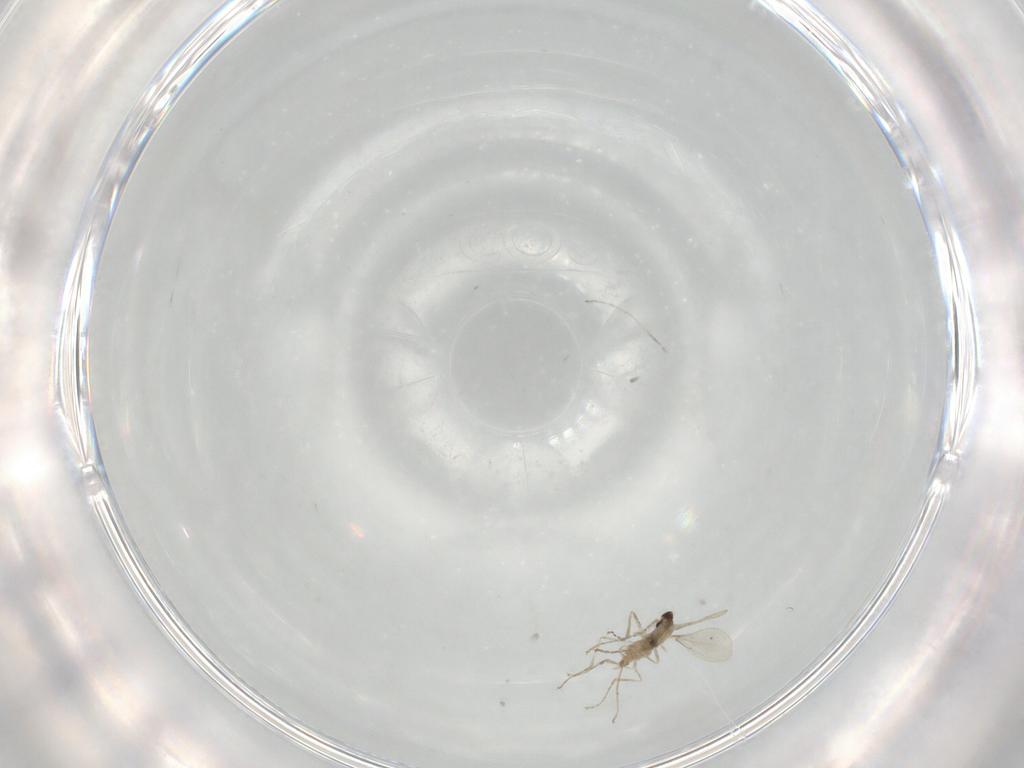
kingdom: Animalia
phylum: Arthropoda
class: Insecta
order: Diptera
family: Cecidomyiidae
